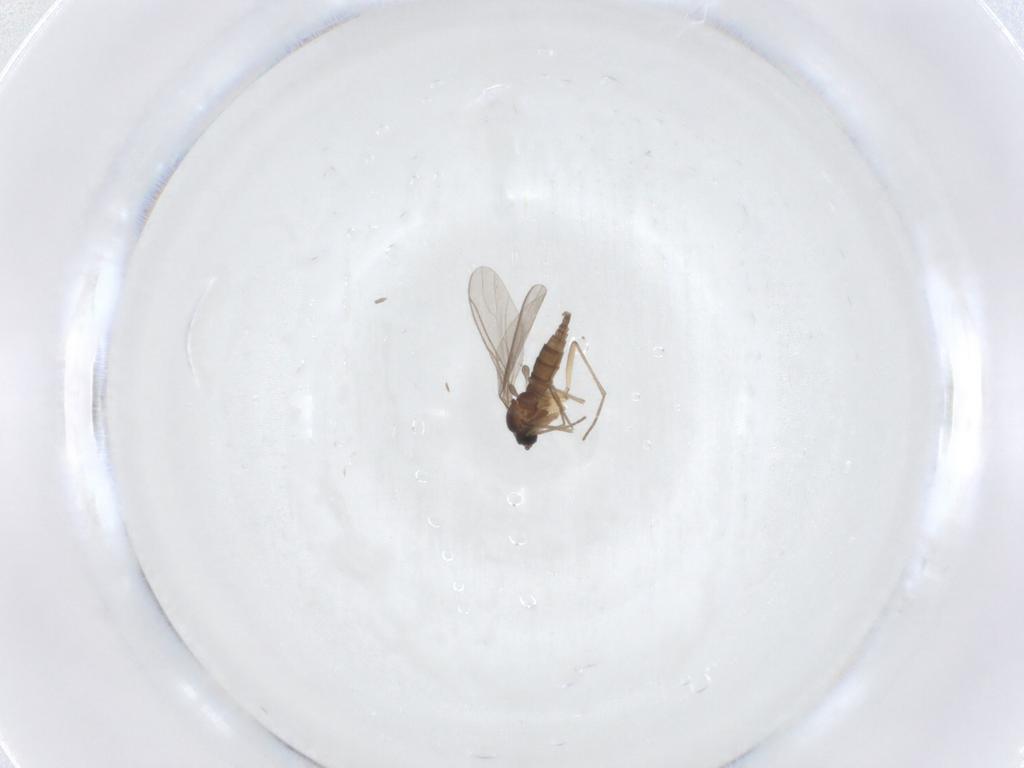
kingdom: Animalia
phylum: Arthropoda
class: Insecta
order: Diptera
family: Sciaridae
